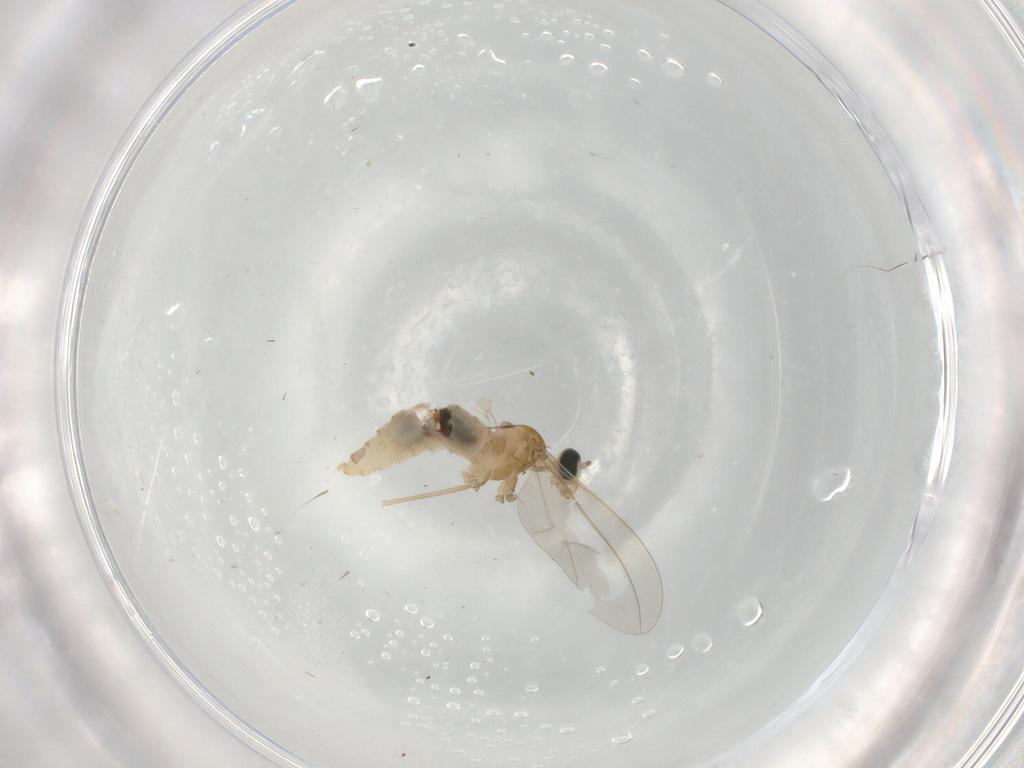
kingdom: Animalia
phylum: Arthropoda
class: Insecta
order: Diptera
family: Cecidomyiidae
